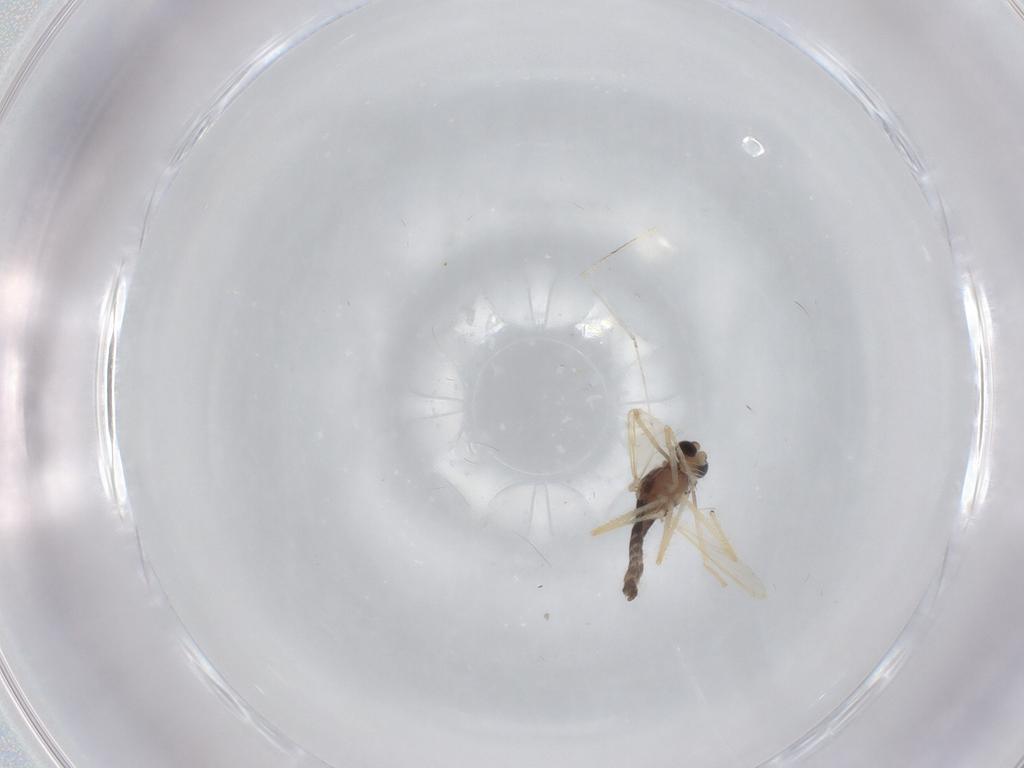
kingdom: Animalia
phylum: Arthropoda
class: Insecta
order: Diptera
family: Chironomidae
